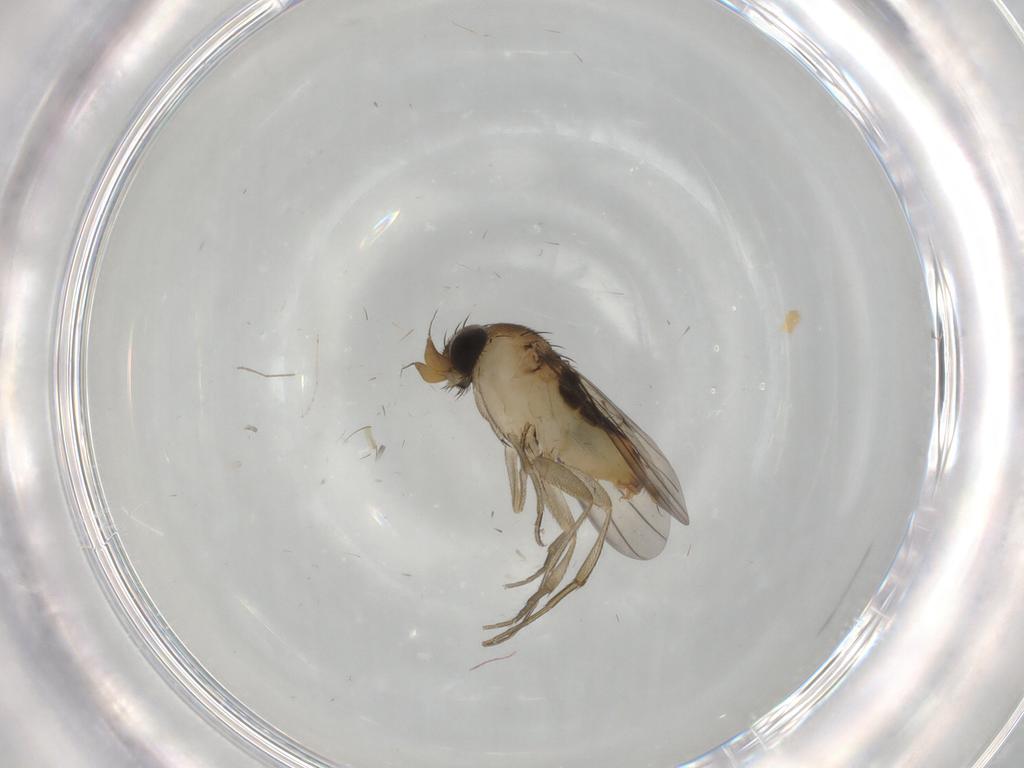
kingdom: Animalia
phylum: Arthropoda
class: Insecta
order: Diptera
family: Phoridae
